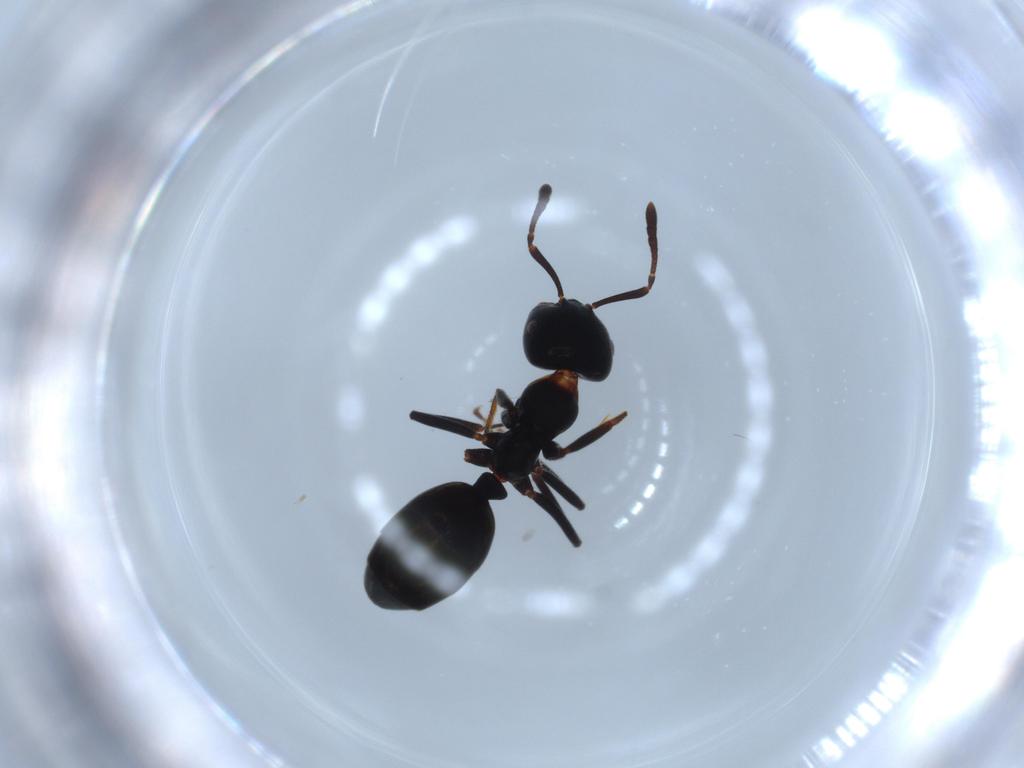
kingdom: Animalia
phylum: Arthropoda
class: Insecta
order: Hymenoptera
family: Formicidae
